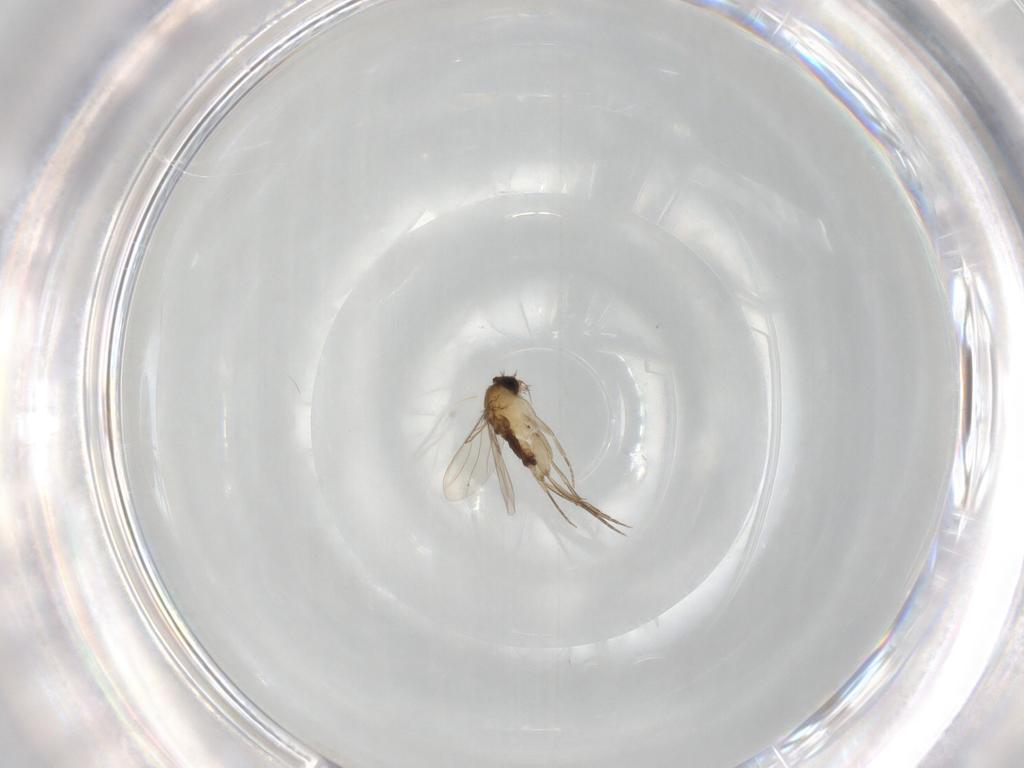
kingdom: Animalia
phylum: Arthropoda
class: Insecta
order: Diptera
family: Phoridae
